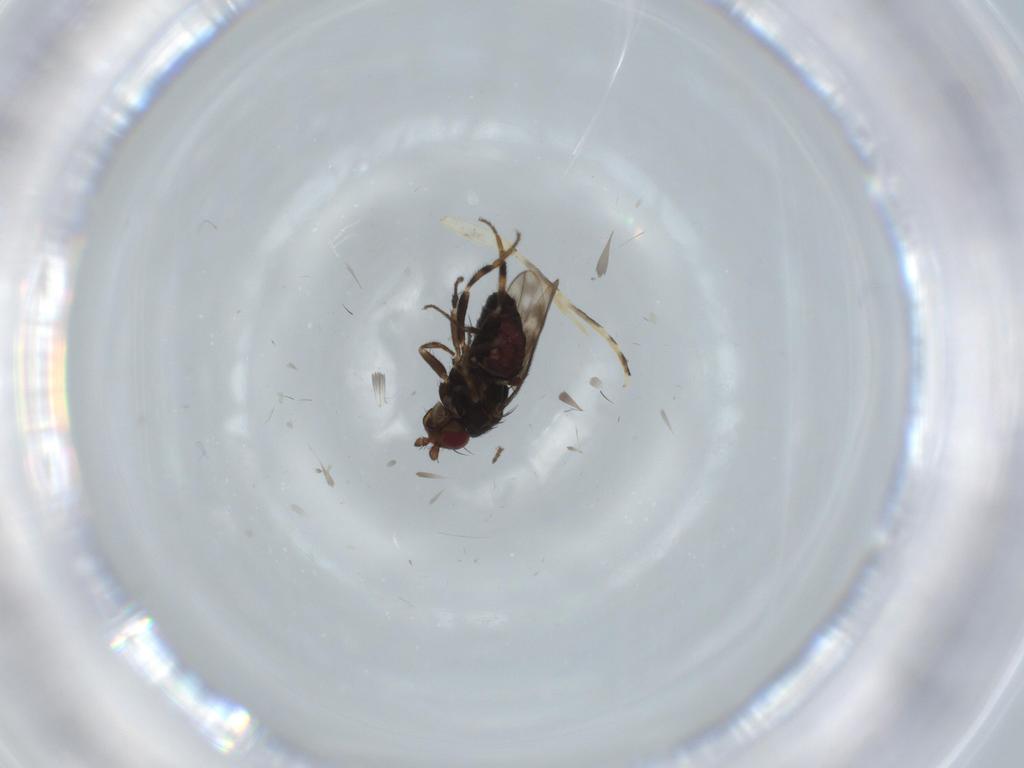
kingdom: Animalia
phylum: Arthropoda
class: Insecta
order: Diptera
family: Sphaeroceridae
